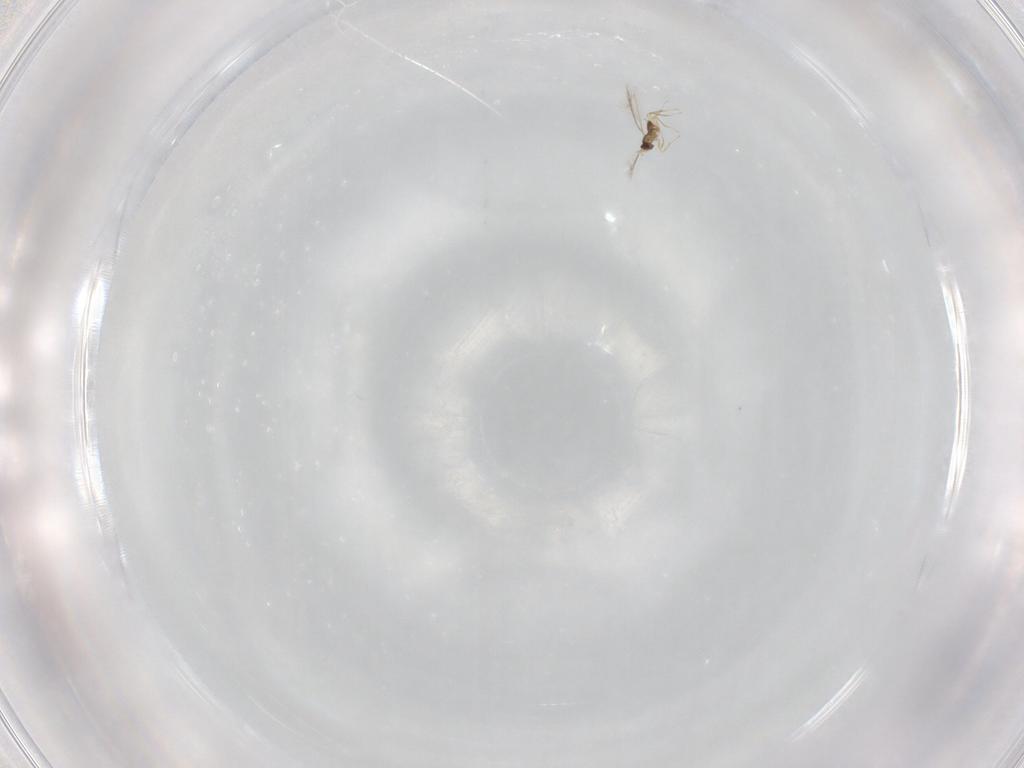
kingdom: Animalia
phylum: Arthropoda
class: Insecta
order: Hymenoptera
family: Mymaridae
